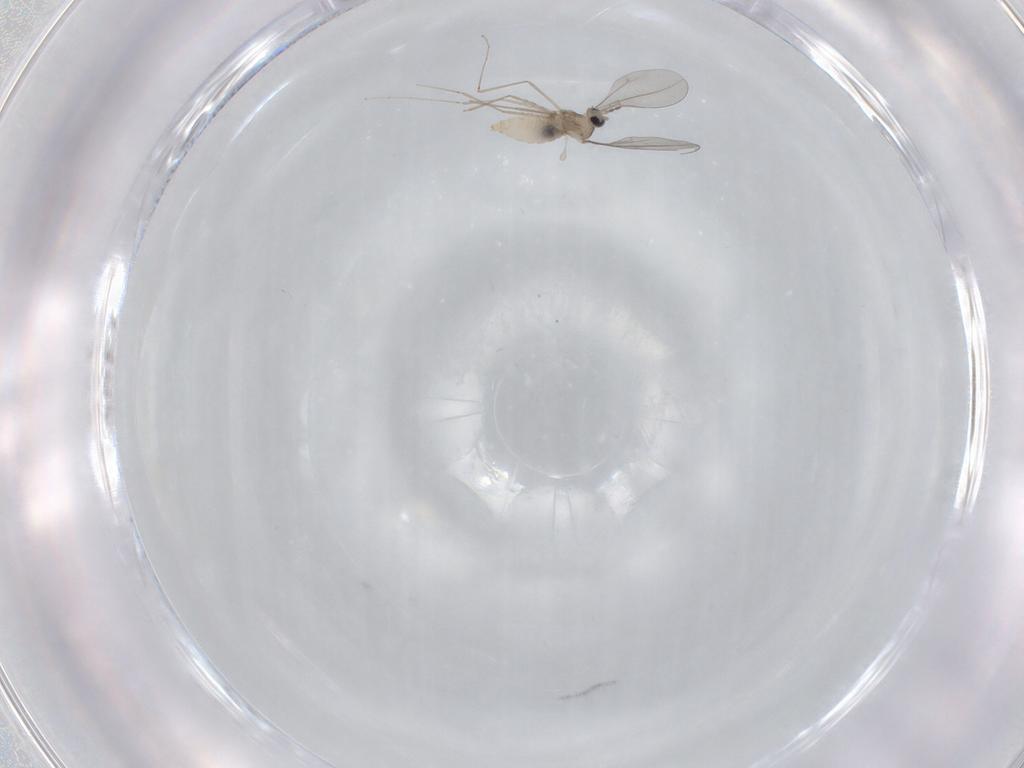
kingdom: Animalia
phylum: Arthropoda
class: Insecta
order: Diptera
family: Cecidomyiidae
